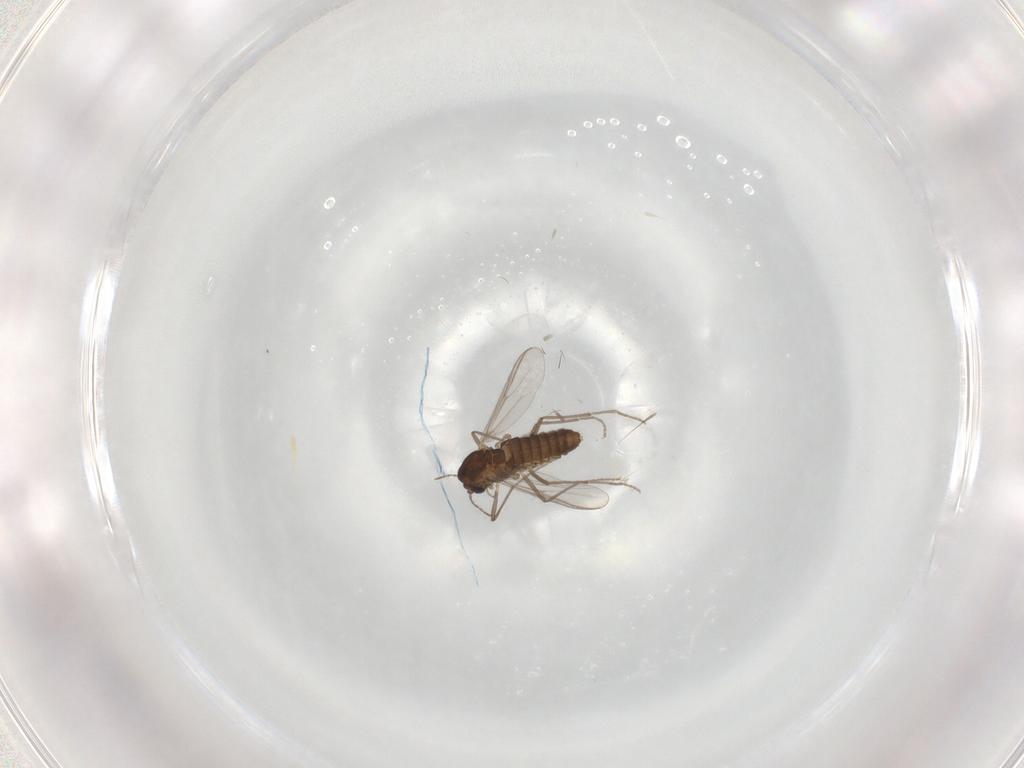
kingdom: Animalia
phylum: Arthropoda
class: Insecta
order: Diptera
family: Chironomidae
